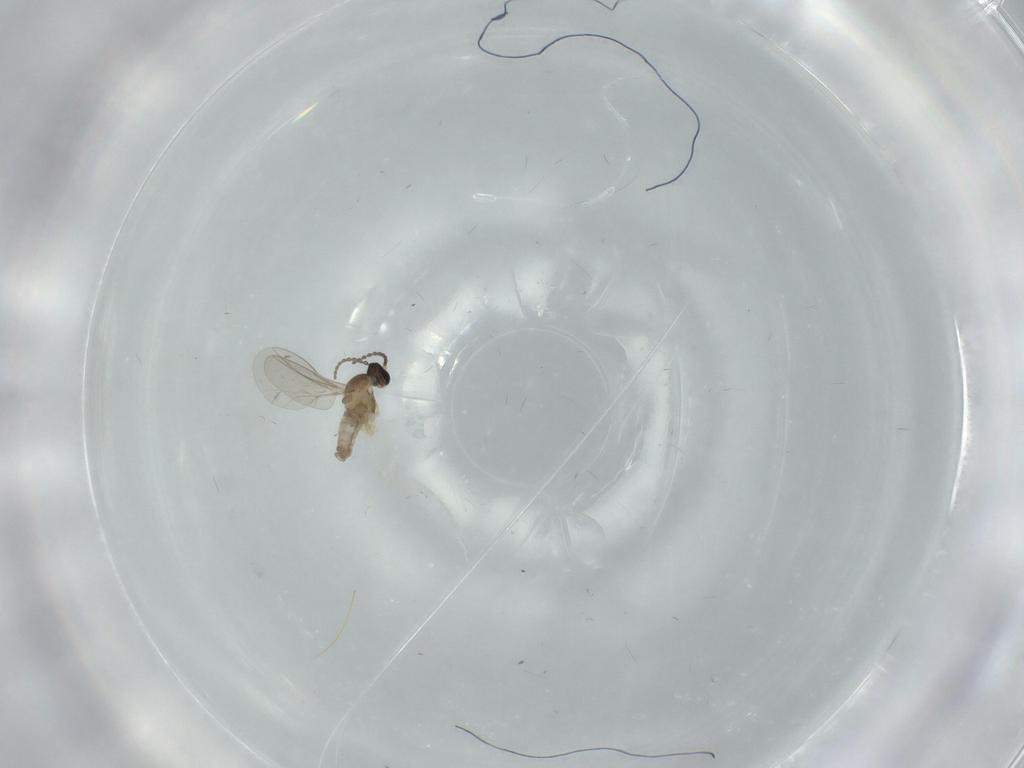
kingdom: Animalia
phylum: Arthropoda
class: Insecta
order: Diptera
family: Cecidomyiidae
